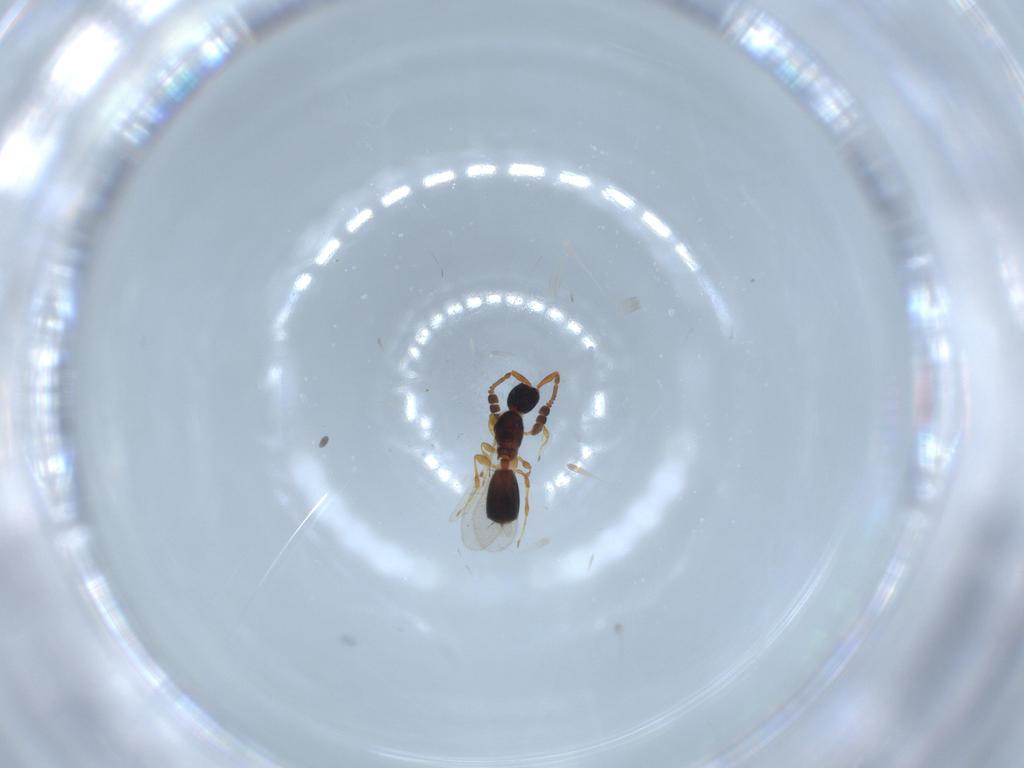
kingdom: Animalia
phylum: Arthropoda
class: Insecta
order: Hymenoptera
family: Diapriidae
